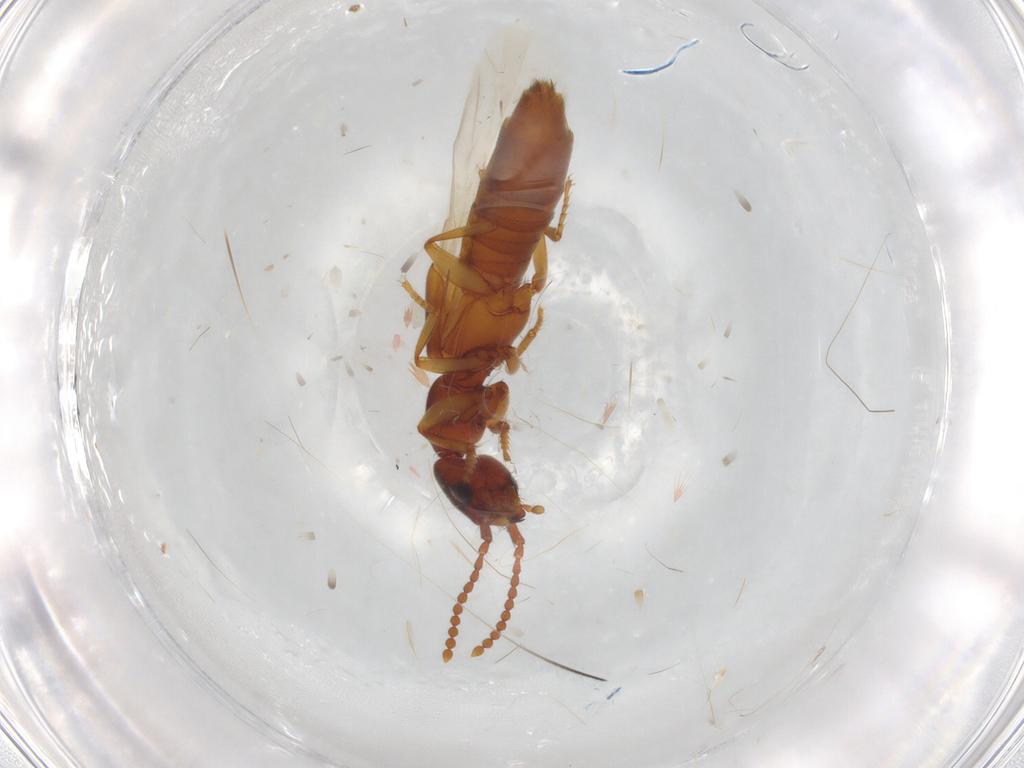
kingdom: Animalia
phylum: Arthropoda
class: Insecta
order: Coleoptera
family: Staphylinidae
